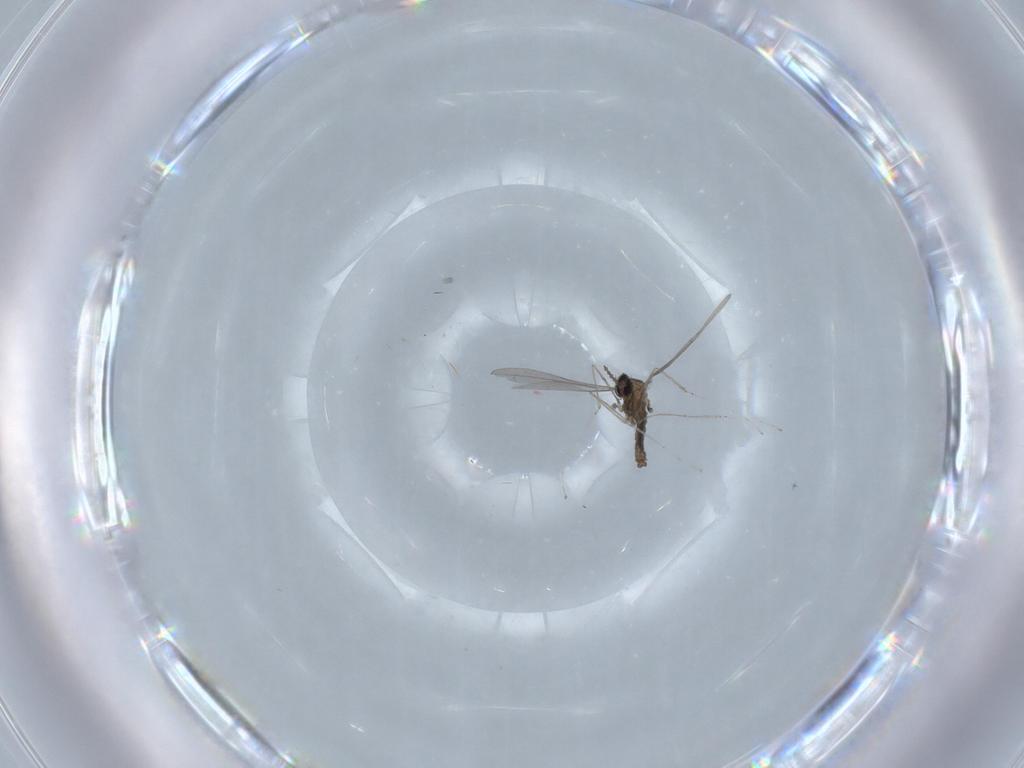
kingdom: Animalia
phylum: Arthropoda
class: Insecta
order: Diptera
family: Cecidomyiidae
